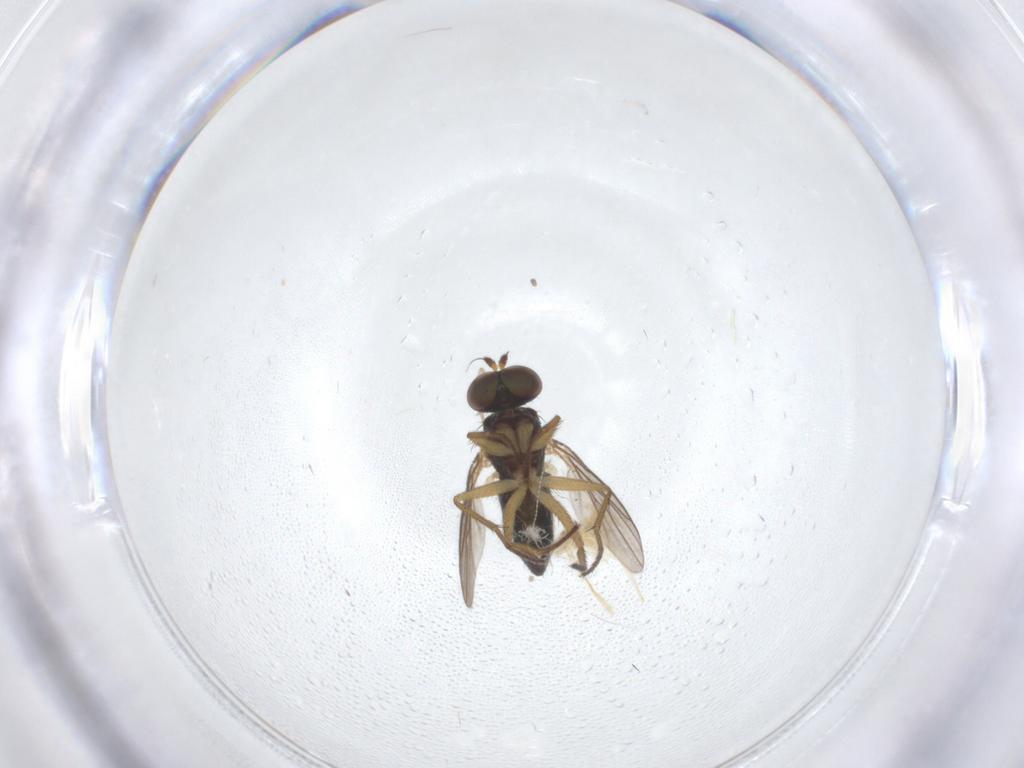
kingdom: Animalia
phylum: Arthropoda
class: Insecta
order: Diptera
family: Dolichopodidae
